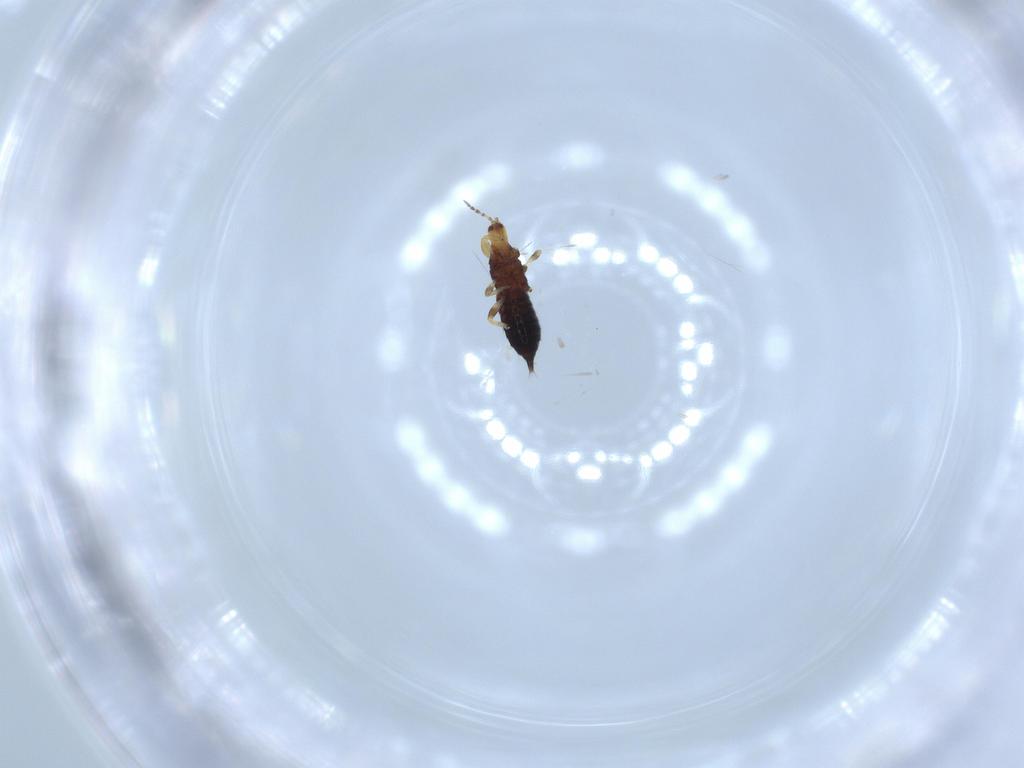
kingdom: Animalia
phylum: Arthropoda
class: Insecta
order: Thysanoptera
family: Phlaeothripidae
